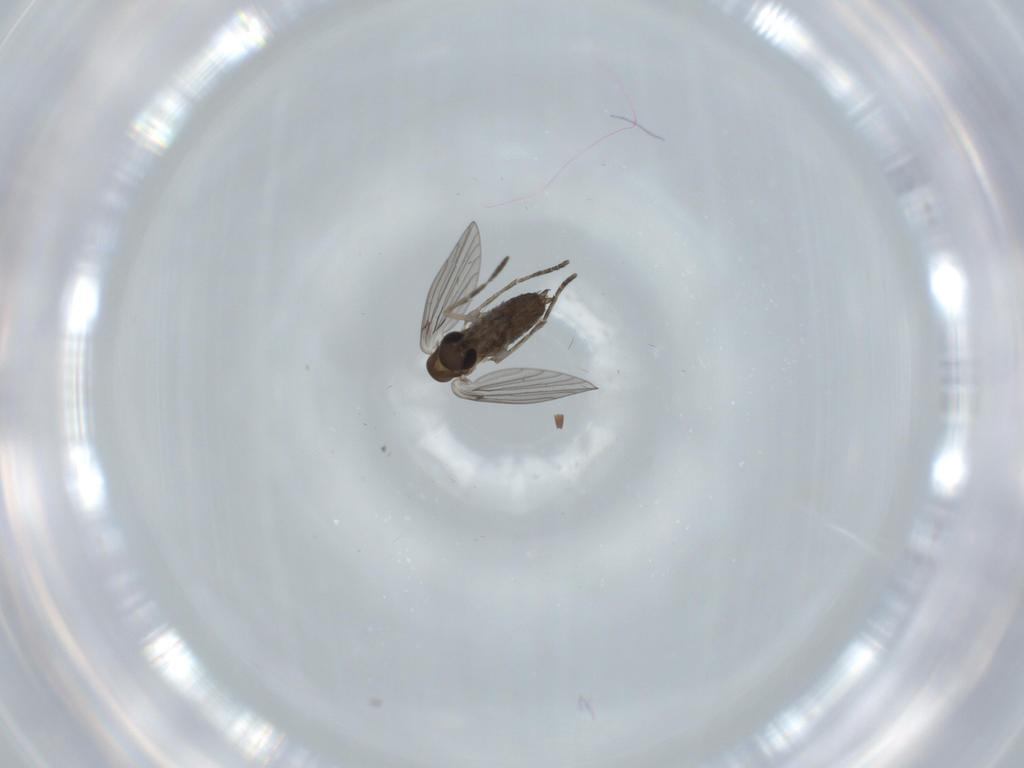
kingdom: Animalia
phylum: Arthropoda
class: Insecta
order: Diptera
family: Psychodidae
